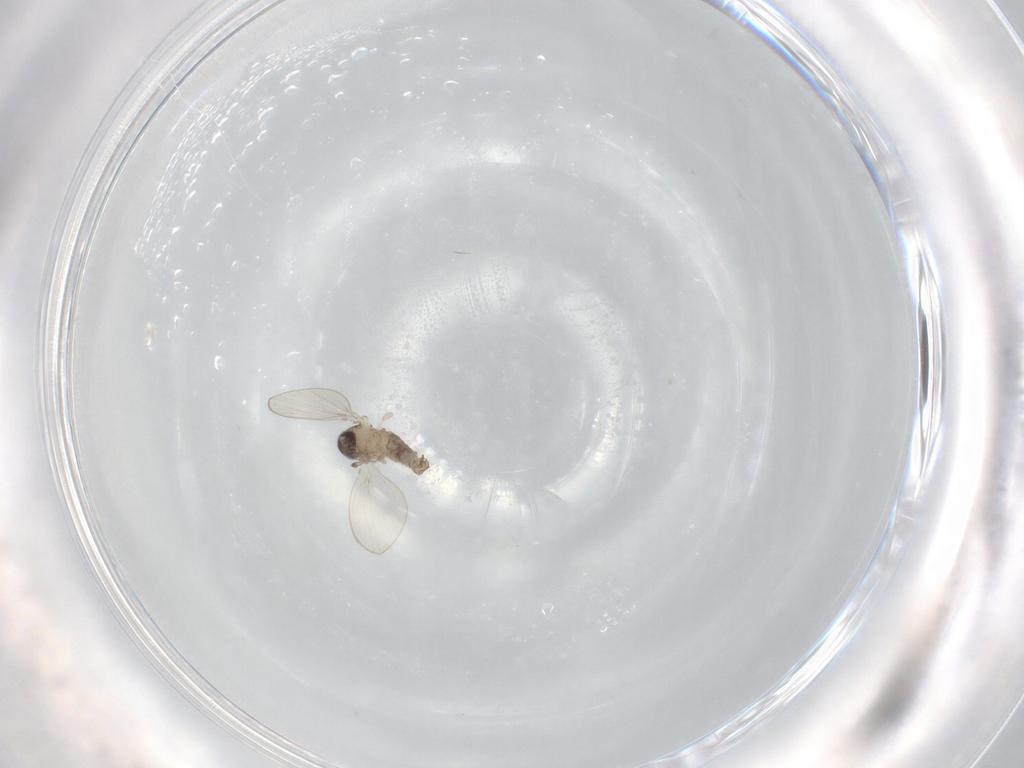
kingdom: Animalia
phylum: Arthropoda
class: Insecta
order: Diptera
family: Psychodidae
